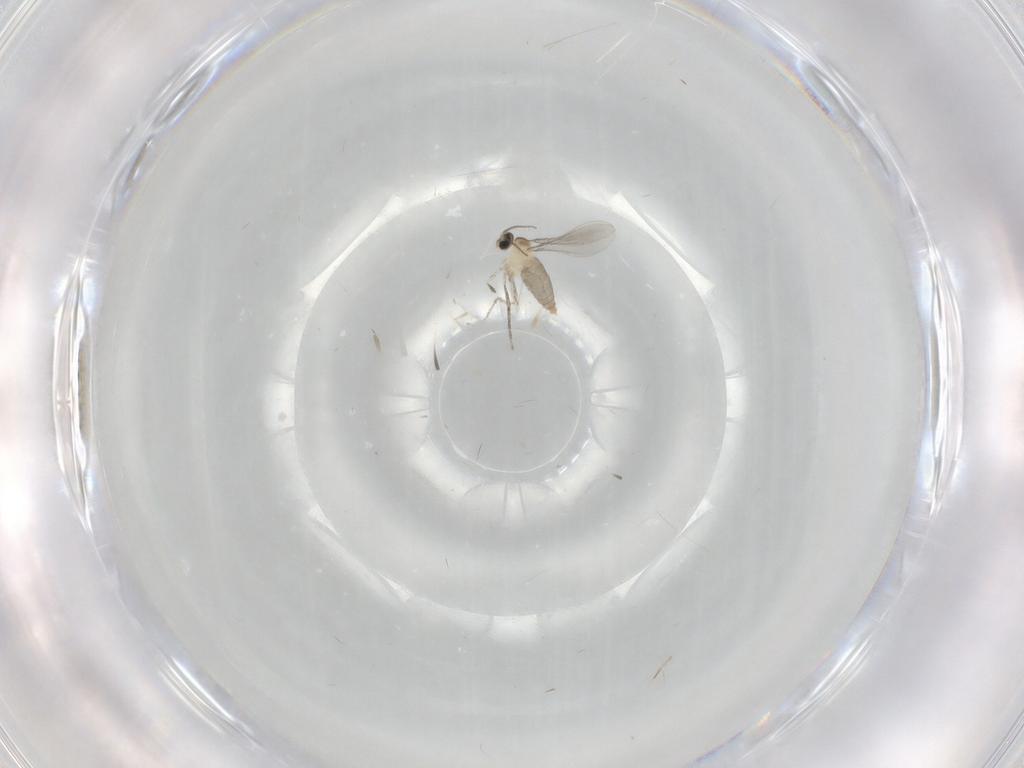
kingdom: Animalia
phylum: Arthropoda
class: Insecta
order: Diptera
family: Cecidomyiidae
